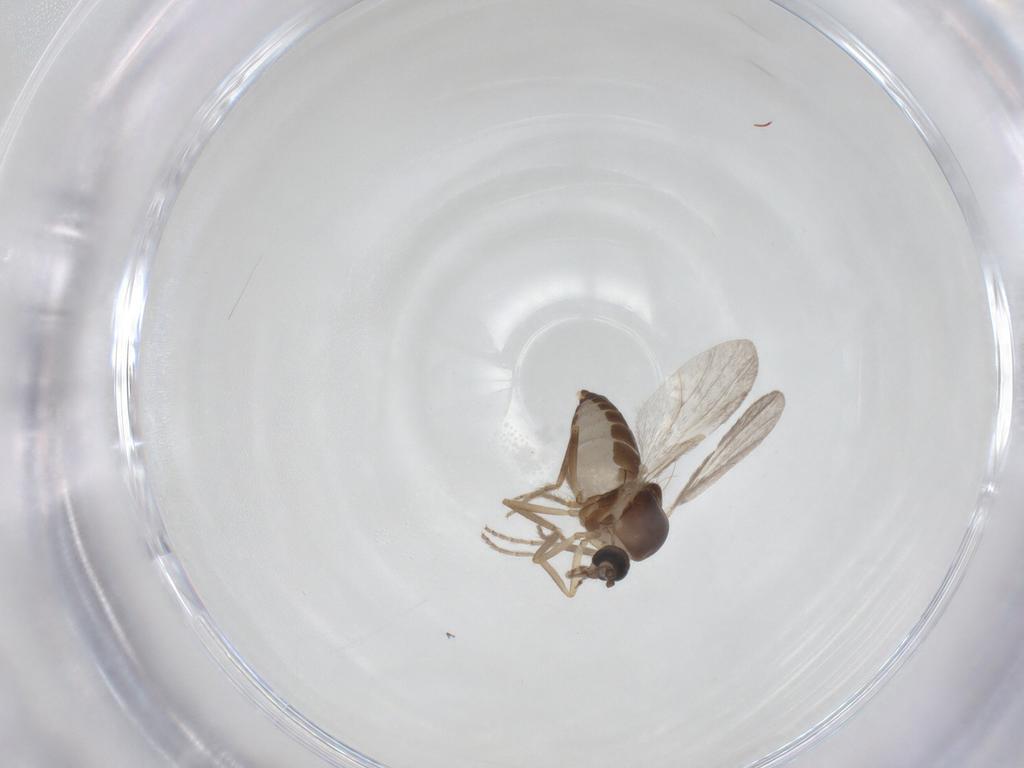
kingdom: Animalia
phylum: Arthropoda
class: Insecta
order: Diptera
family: Ceratopogonidae
